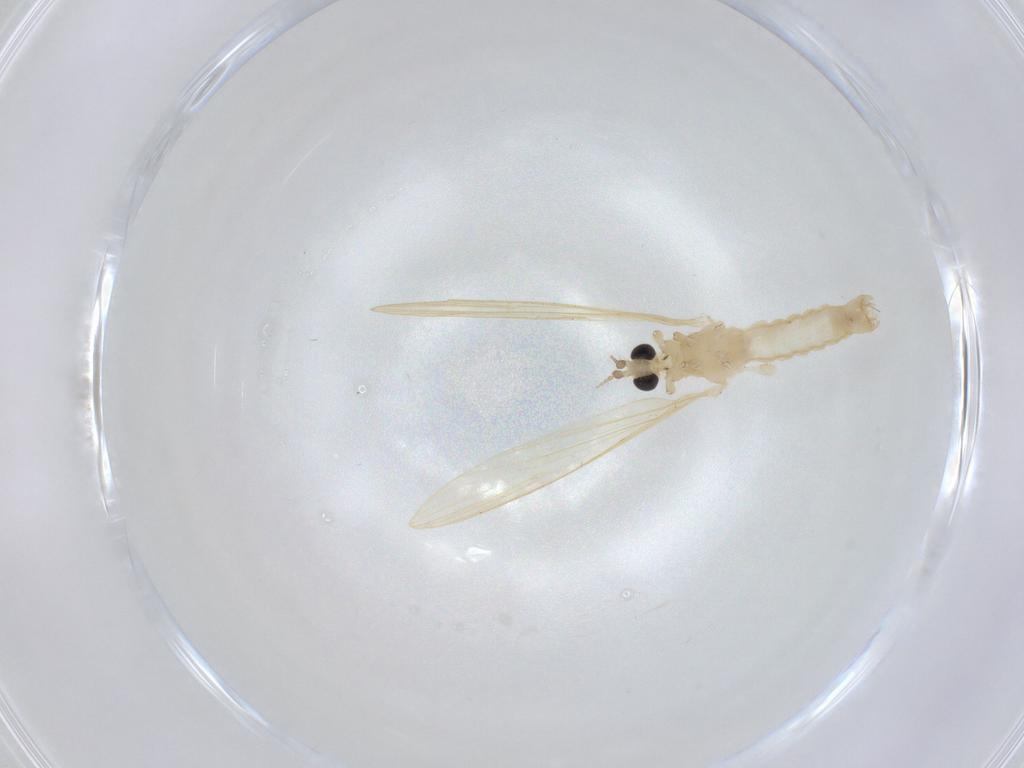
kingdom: Animalia
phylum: Arthropoda
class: Insecta
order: Diptera
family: Limoniidae
